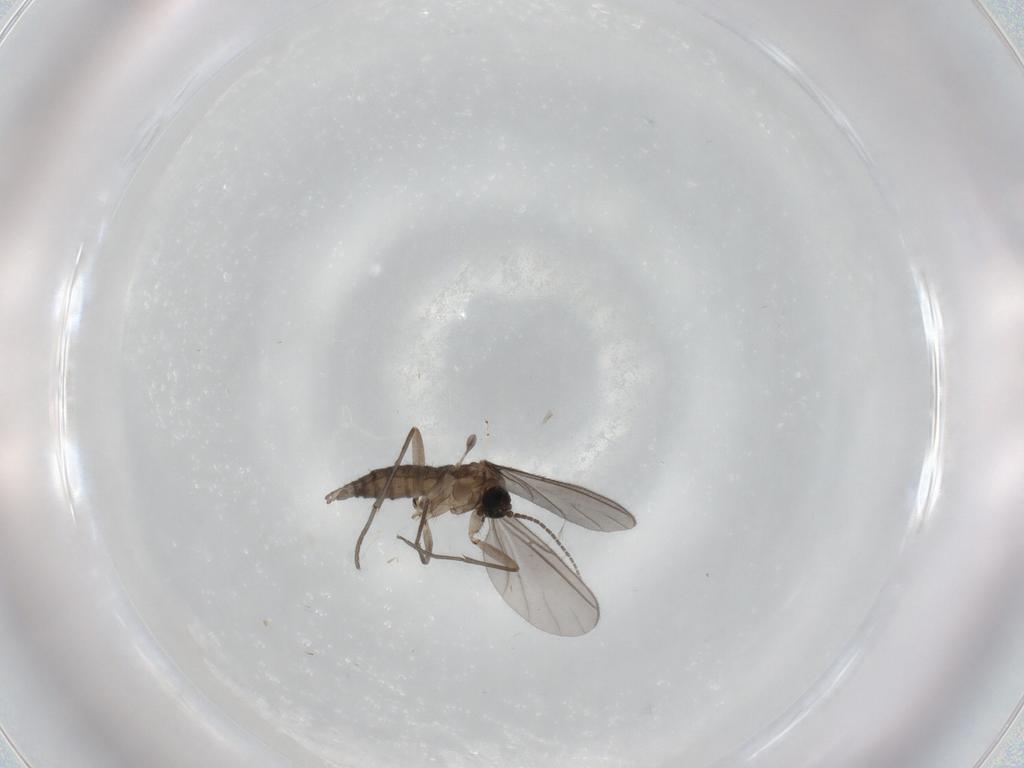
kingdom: Animalia
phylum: Arthropoda
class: Insecta
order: Diptera
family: Sciaridae
